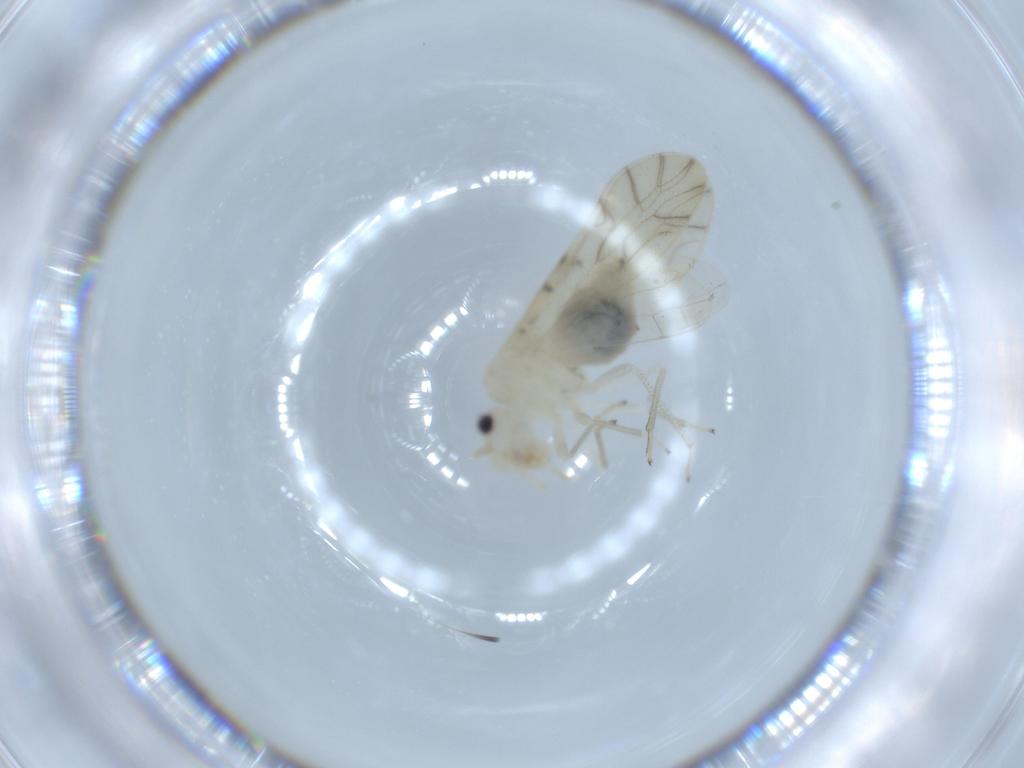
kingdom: Animalia
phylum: Arthropoda
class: Insecta
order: Psocodea
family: Caeciliusidae
